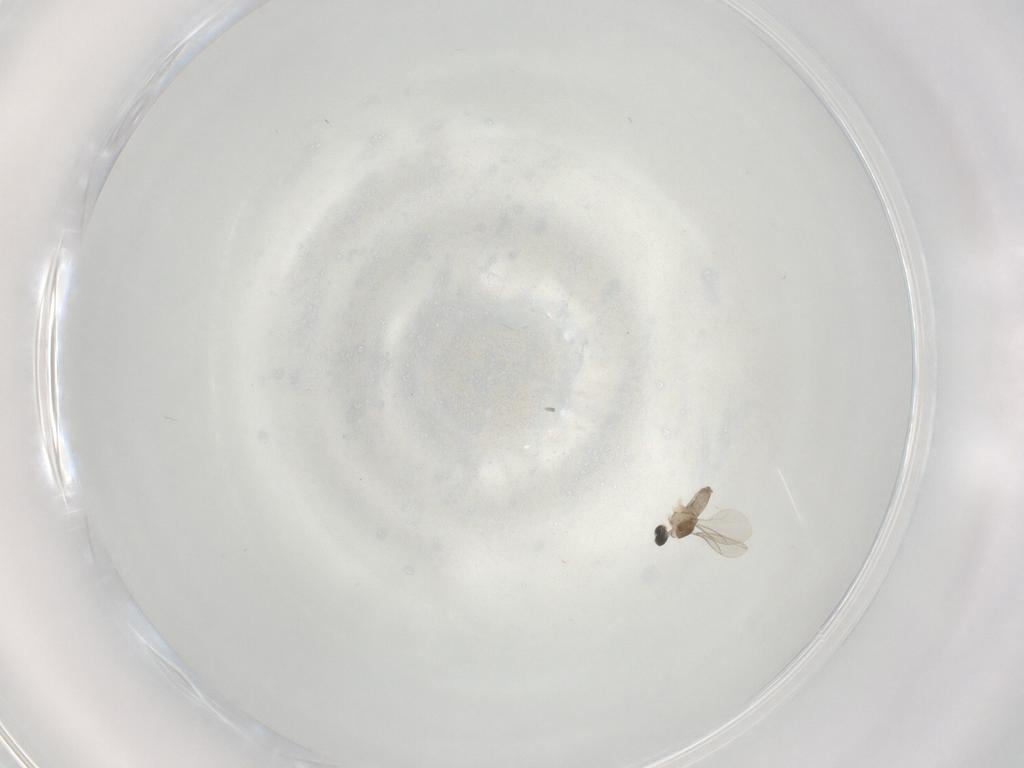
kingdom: Animalia
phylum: Arthropoda
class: Insecta
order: Diptera
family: Cecidomyiidae
